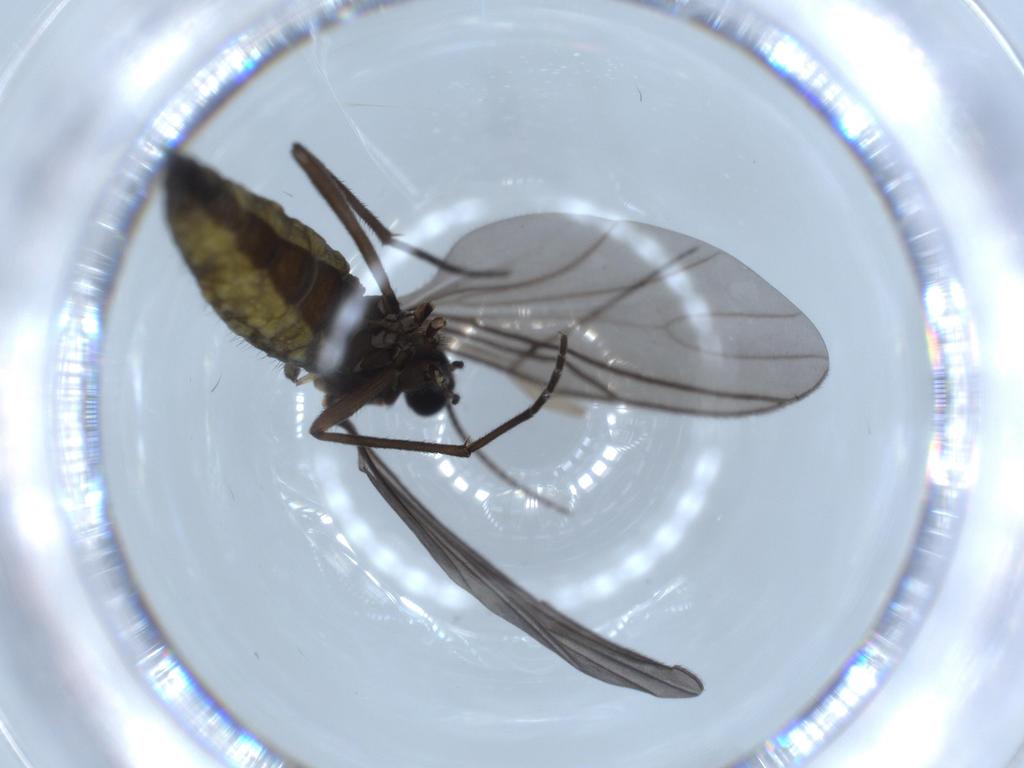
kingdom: Animalia
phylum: Arthropoda
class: Insecta
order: Diptera
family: Sciaridae
